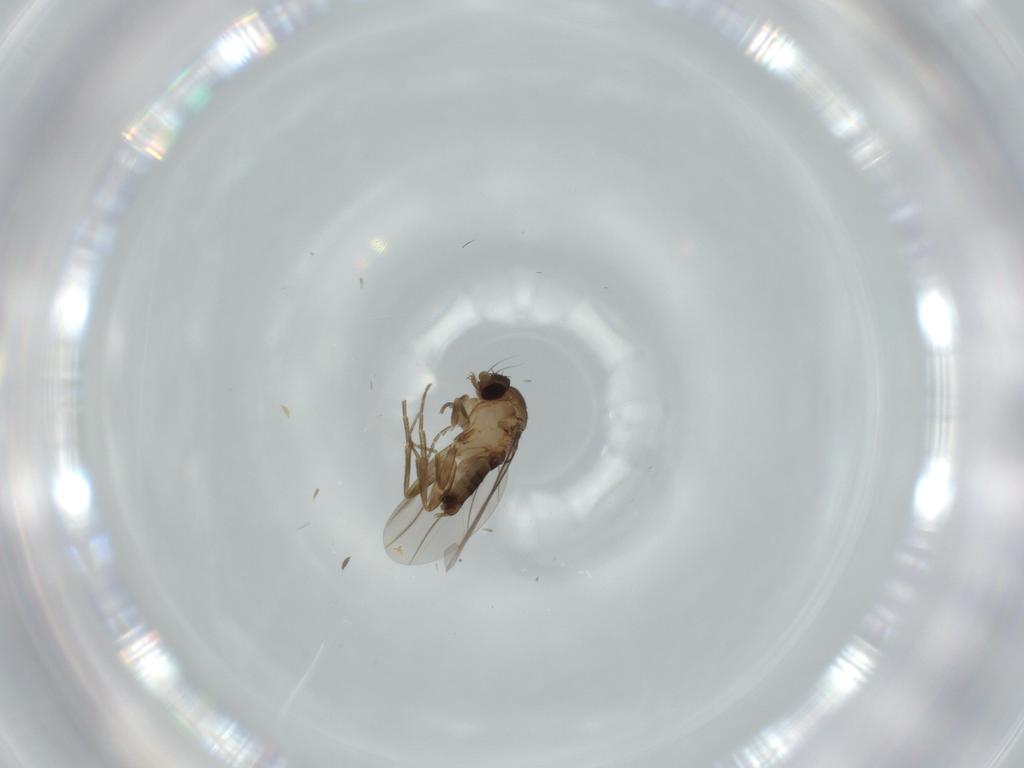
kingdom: Animalia
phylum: Arthropoda
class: Insecta
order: Diptera
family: Phoridae
